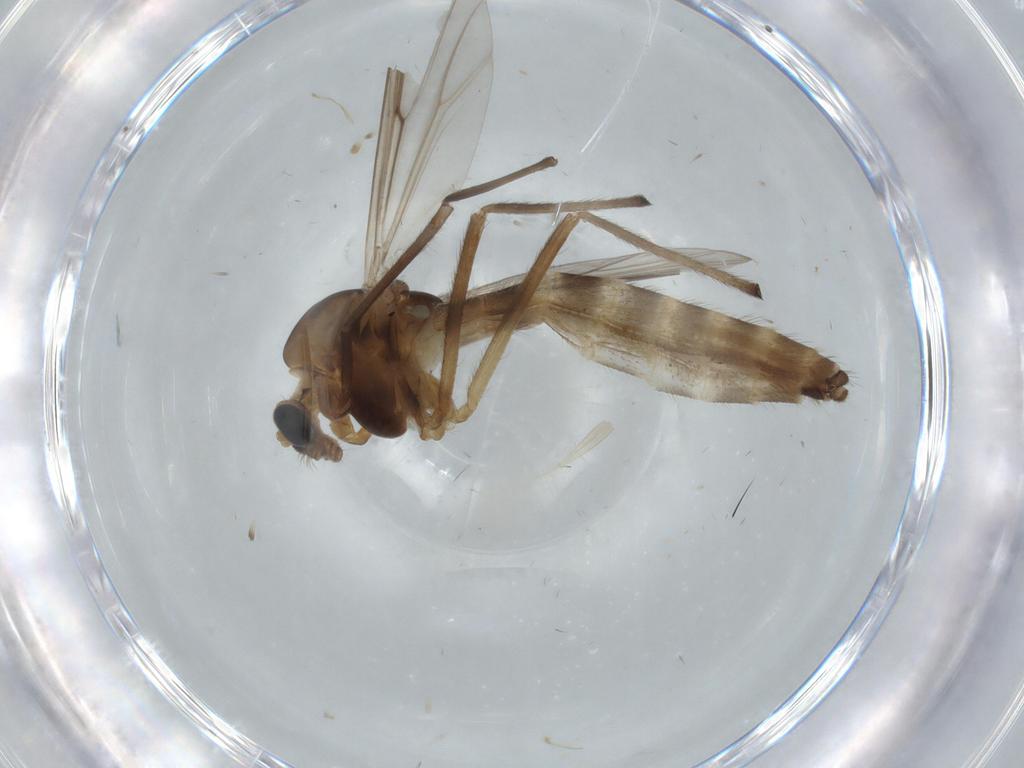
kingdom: Animalia
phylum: Arthropoda
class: Insecta
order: Diptera
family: Chironomidae
